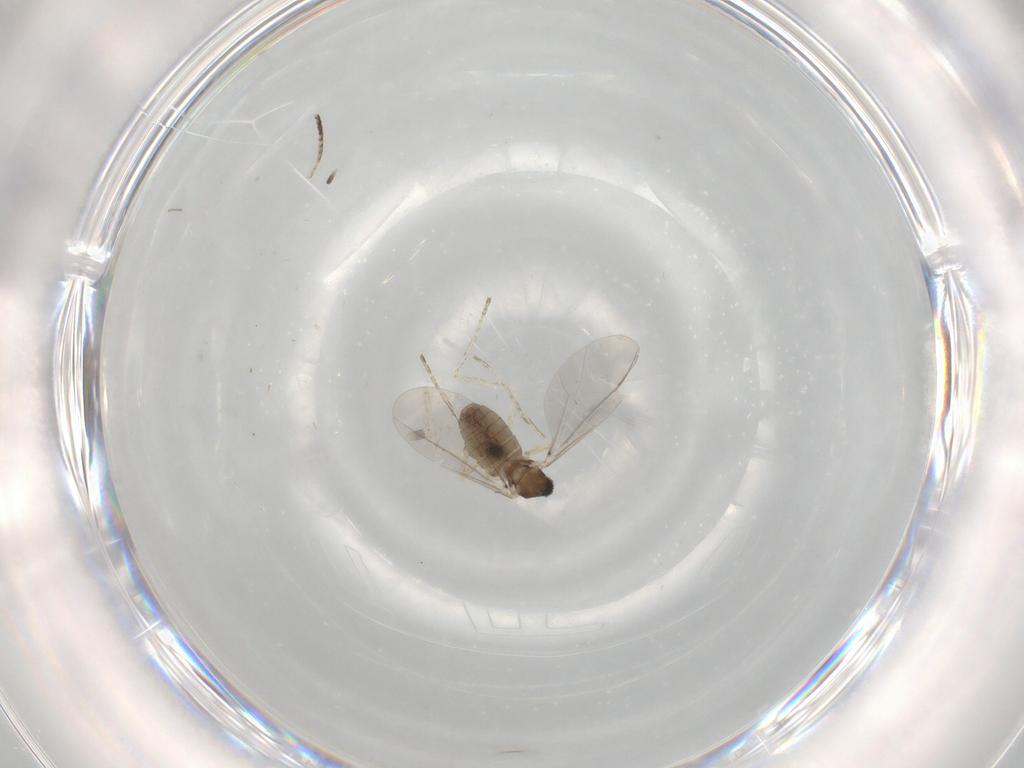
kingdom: Animalia
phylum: Arthropoda
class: Insecta
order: Diptera
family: Cecidomyiidae
